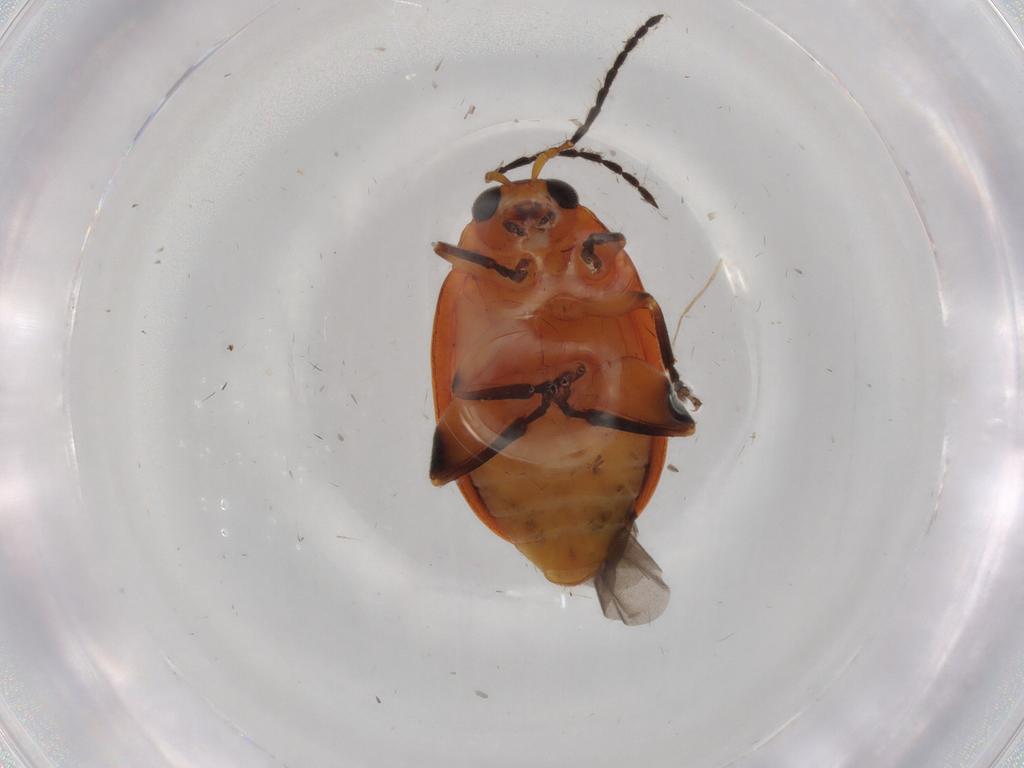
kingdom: Animalia
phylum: Arthropoda
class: Insecta
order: Coleoptera
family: Chrysomelidae
